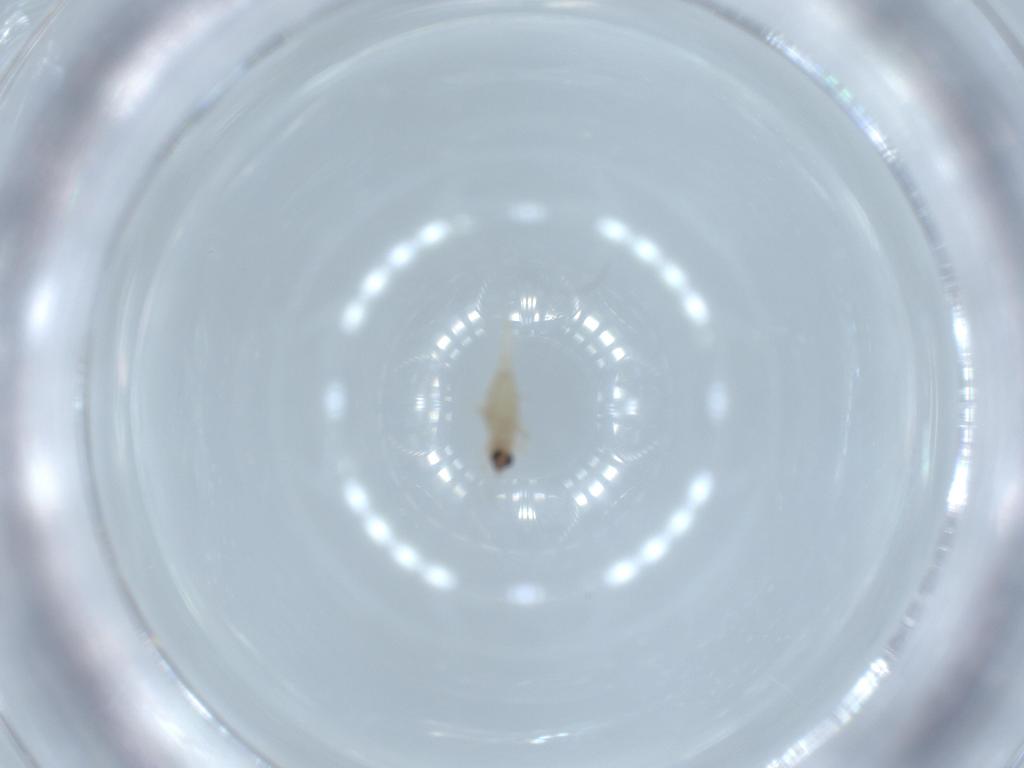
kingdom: Animalia
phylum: Arthropoda
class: Insecta
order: Diptera
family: Cecidomyiidae
